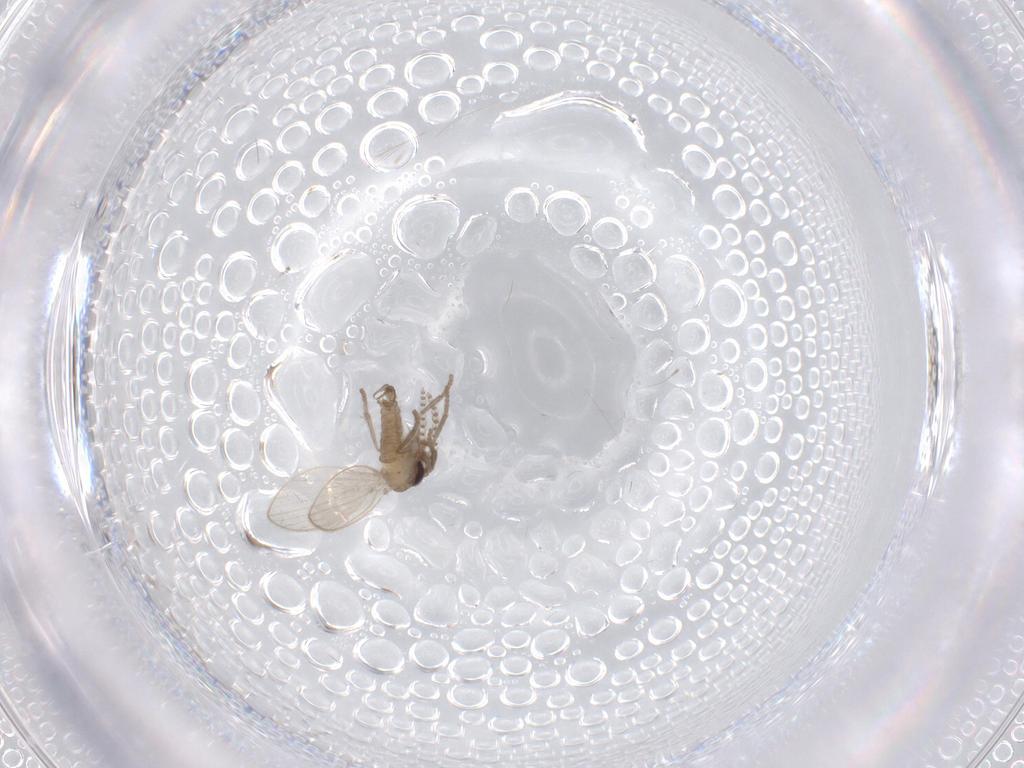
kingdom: Animalia
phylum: Arthropoda
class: Insecta
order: Diptera
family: Psychodidae
